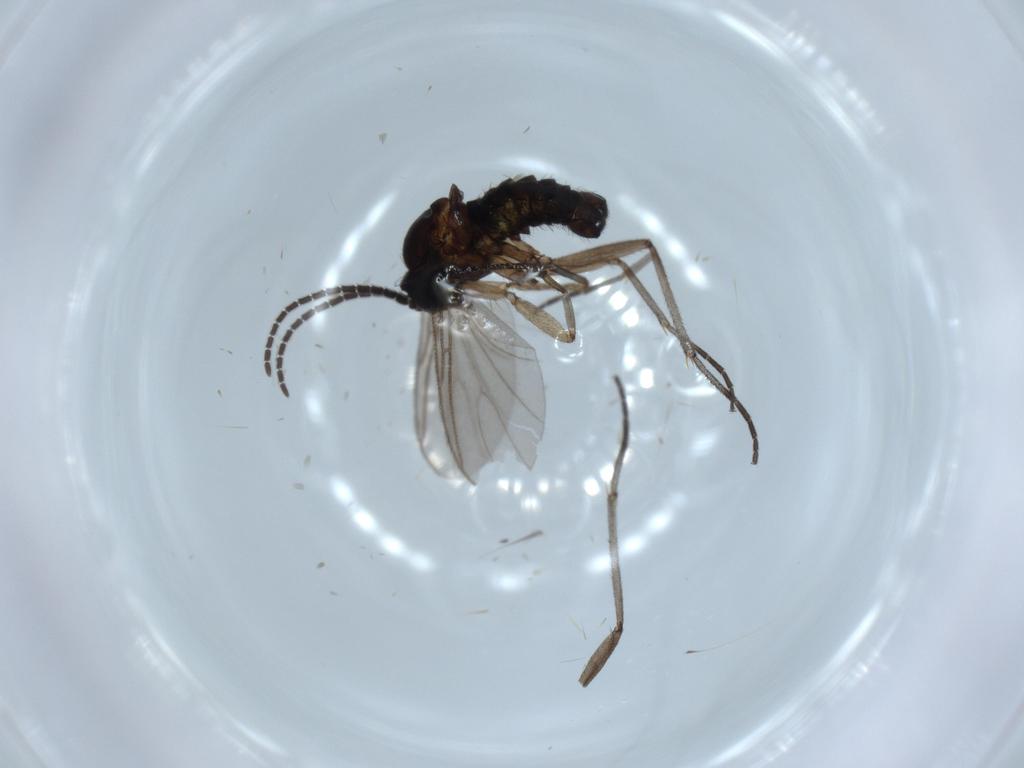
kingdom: Animalia
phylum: Arthropoda
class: Insecta
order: Diptera
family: Sciaridae
